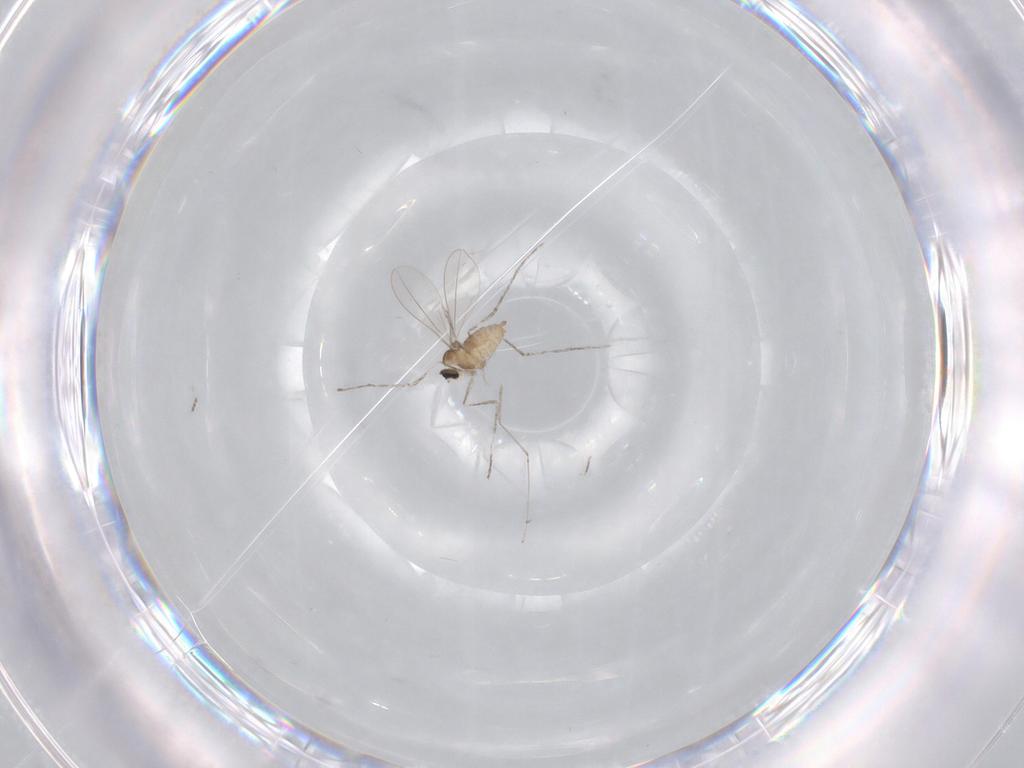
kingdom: Animalia
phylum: Arthropoda
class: Insecta
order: Diptera
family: Cecidomyiidae
